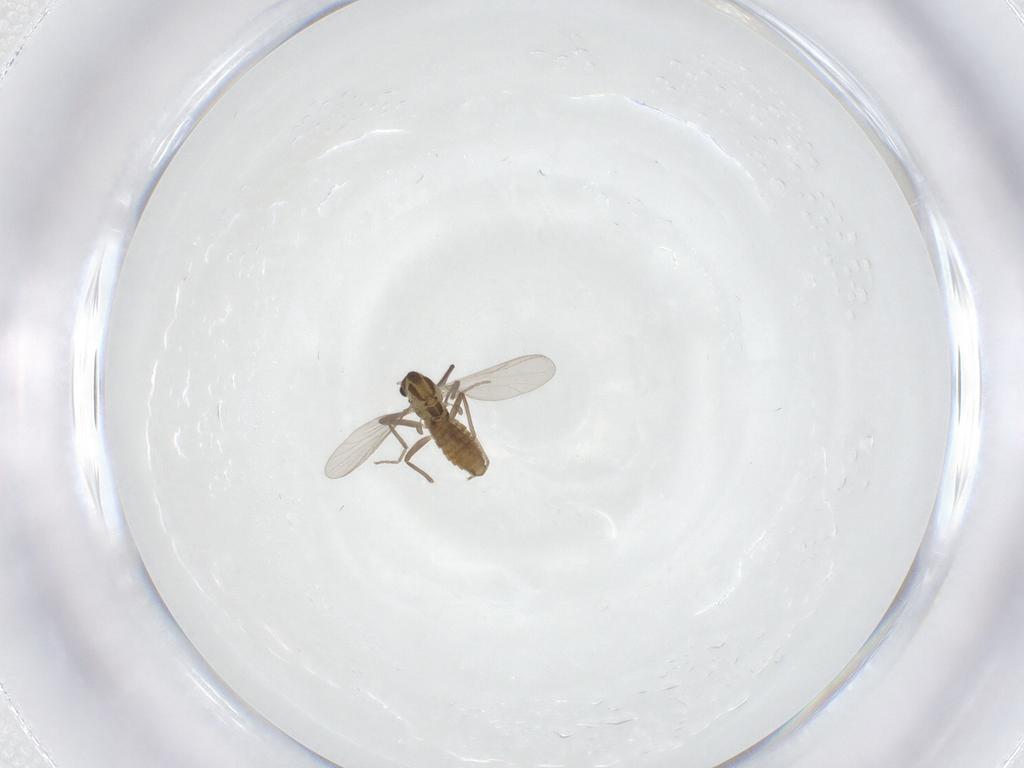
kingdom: Animalia
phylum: Arthropoda
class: Insecta
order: Diptera
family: Chironomidae
